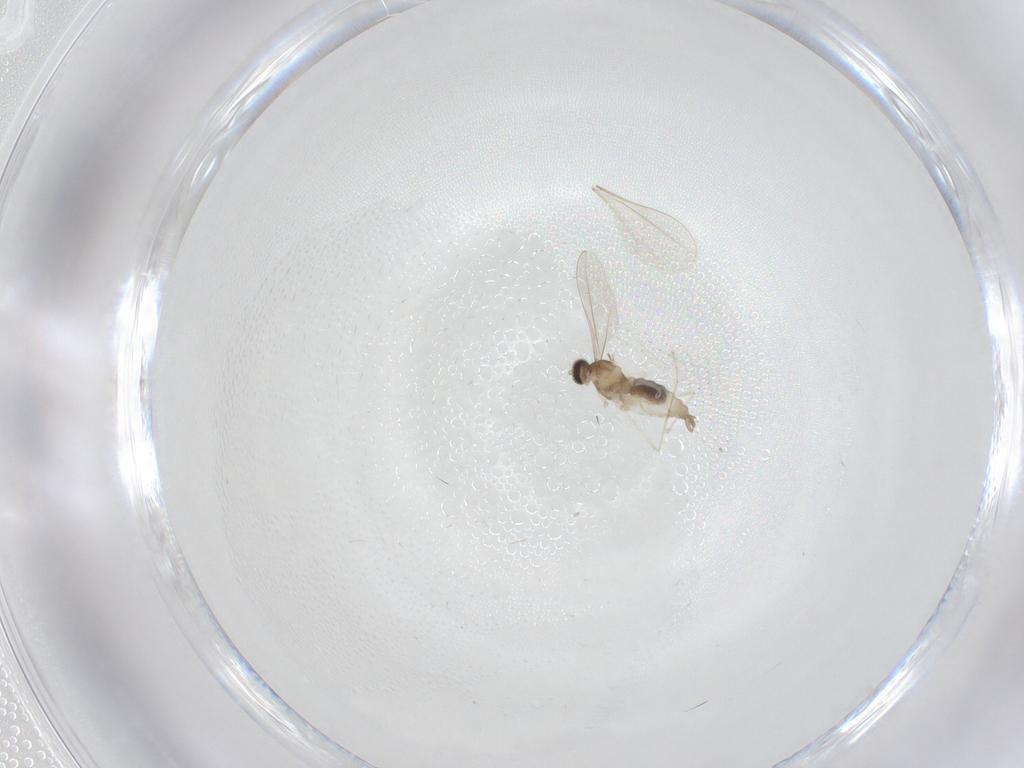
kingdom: Animalia
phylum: Arthropoda
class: Insecta
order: Diptera
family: Cecidomyiidae
